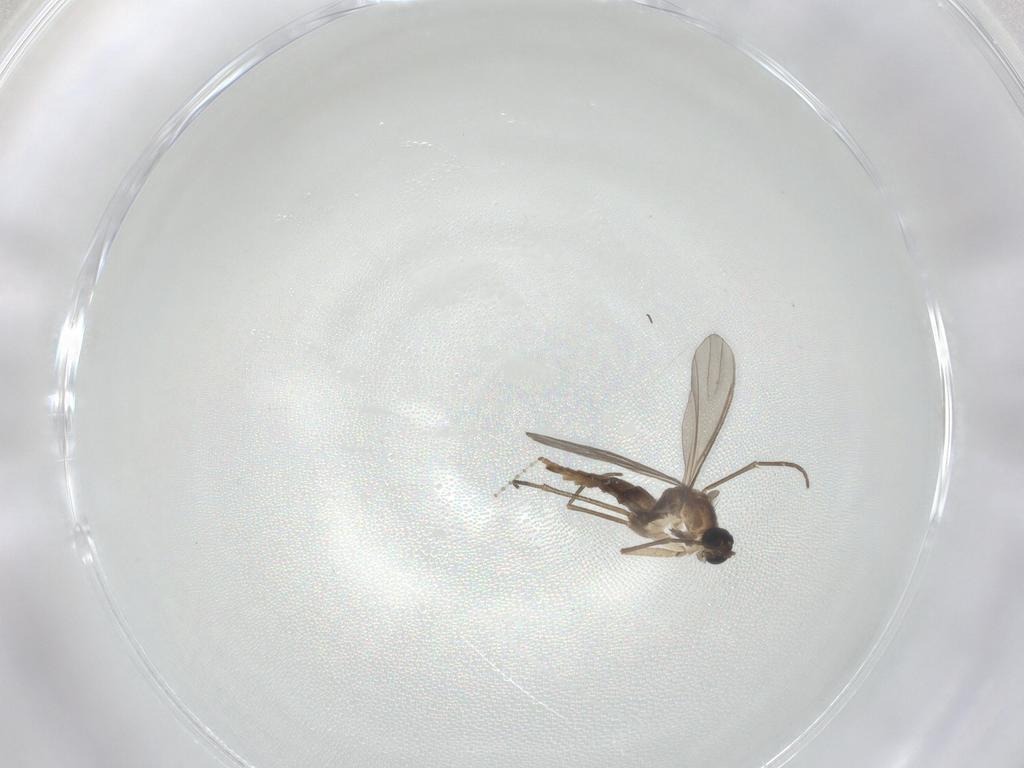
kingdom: Animalia
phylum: Arthropoda
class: Insecta
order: Diptera
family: Sciaridae
